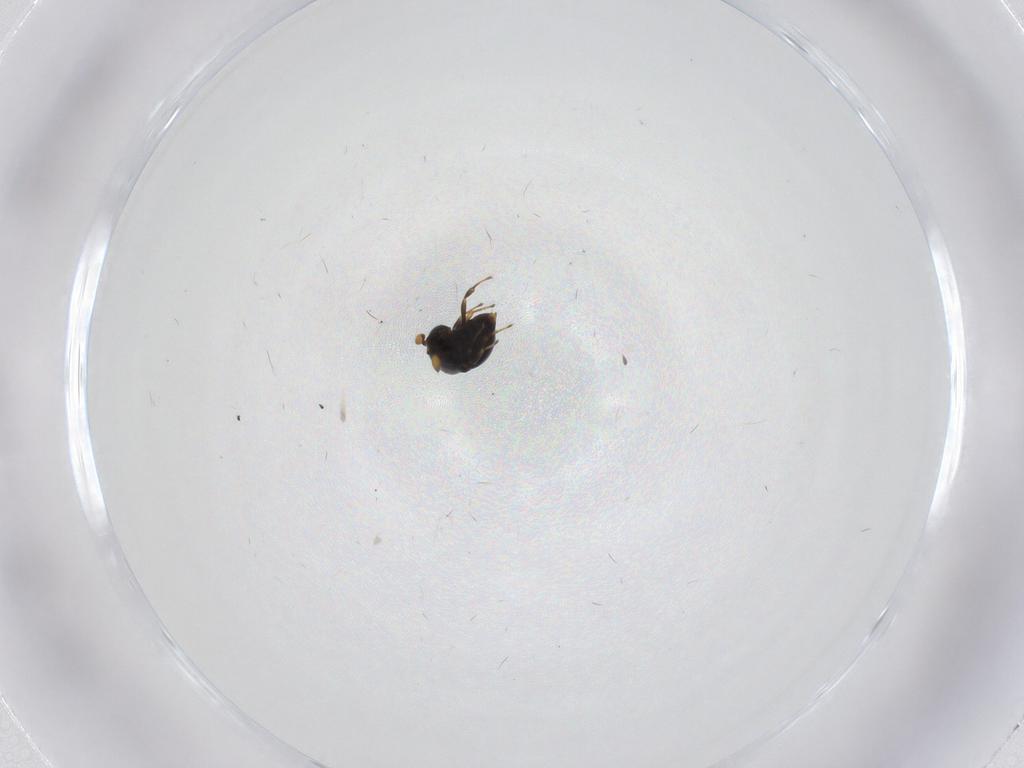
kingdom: Animalia
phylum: Arthropoda
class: Insecta
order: Hymenoptera
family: Scelionidae
